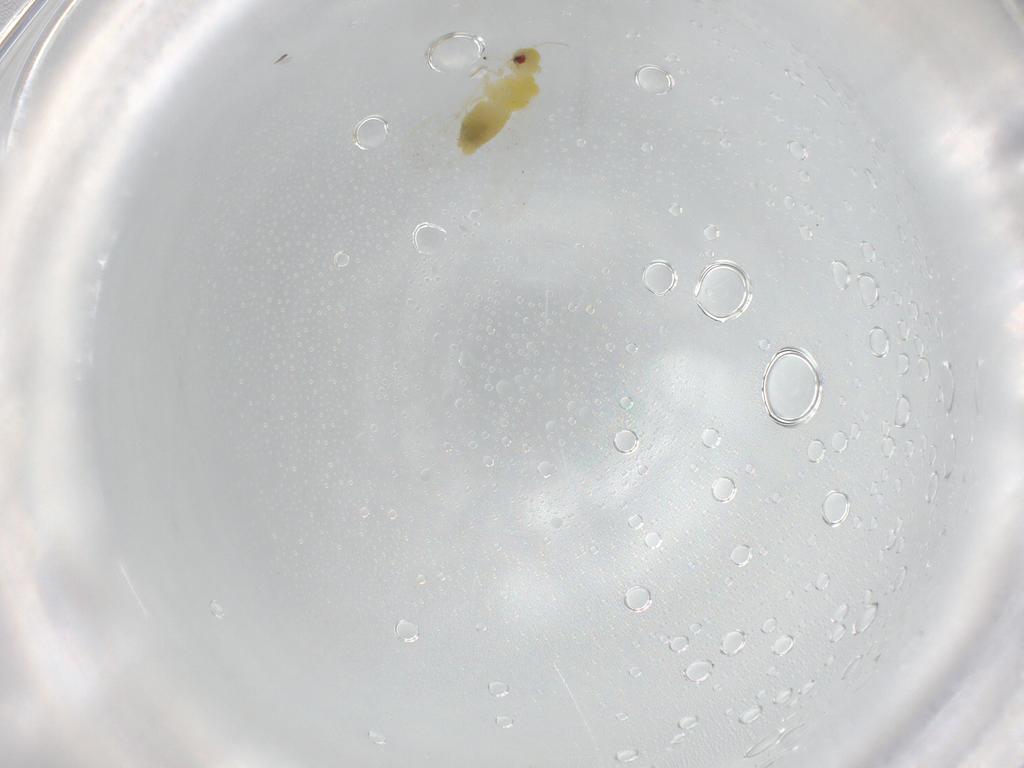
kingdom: Animalia
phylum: Arthropoda
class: Insecta
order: Hemiptera
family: Aleyrodidae
